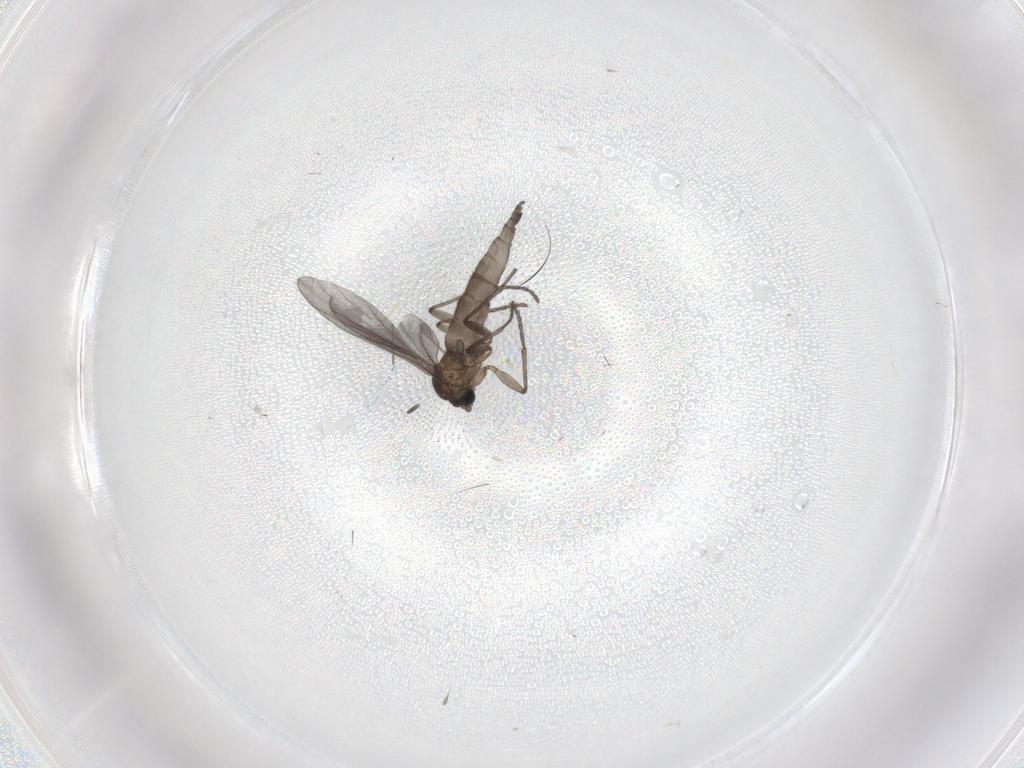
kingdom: Animalia
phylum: Arthropoda
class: Insecta
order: Diptera
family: Sciaridae
